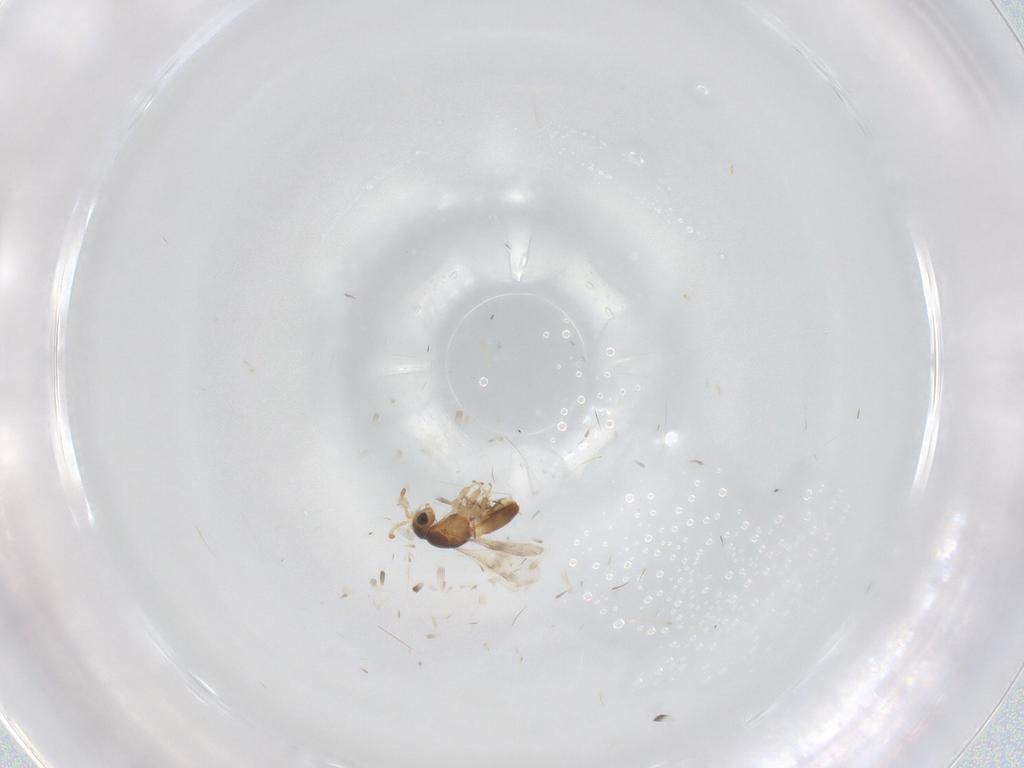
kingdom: Animalia
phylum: Arthropoda
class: Insecta
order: Hymenoptera
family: Scelionidae
